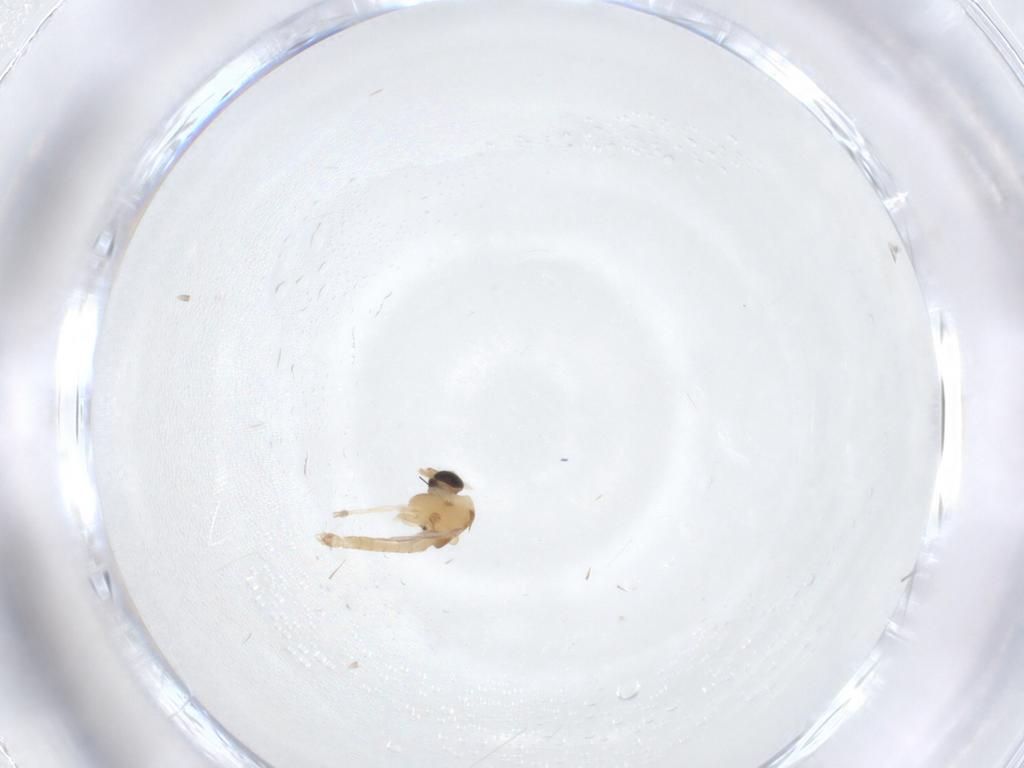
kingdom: Animalia
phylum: Arthropoda
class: Insecta
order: Diptera
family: Chironomidae
